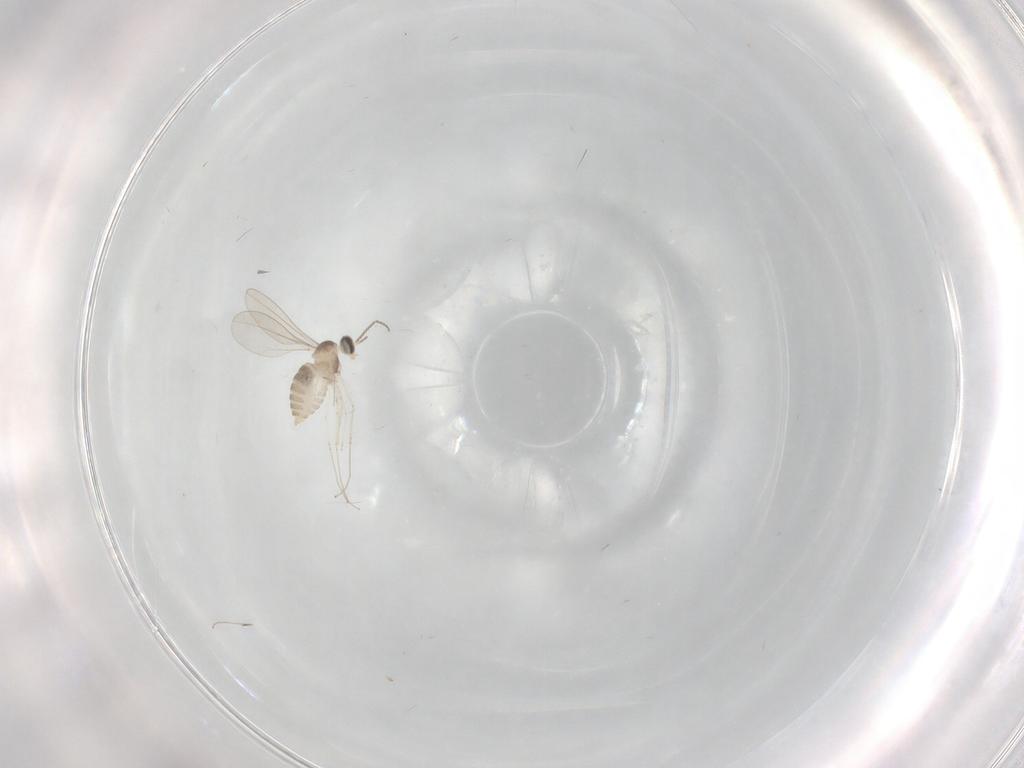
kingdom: Animalia
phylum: Arthropoda
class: Insecta
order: Diptera
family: Cecidomyiidae
